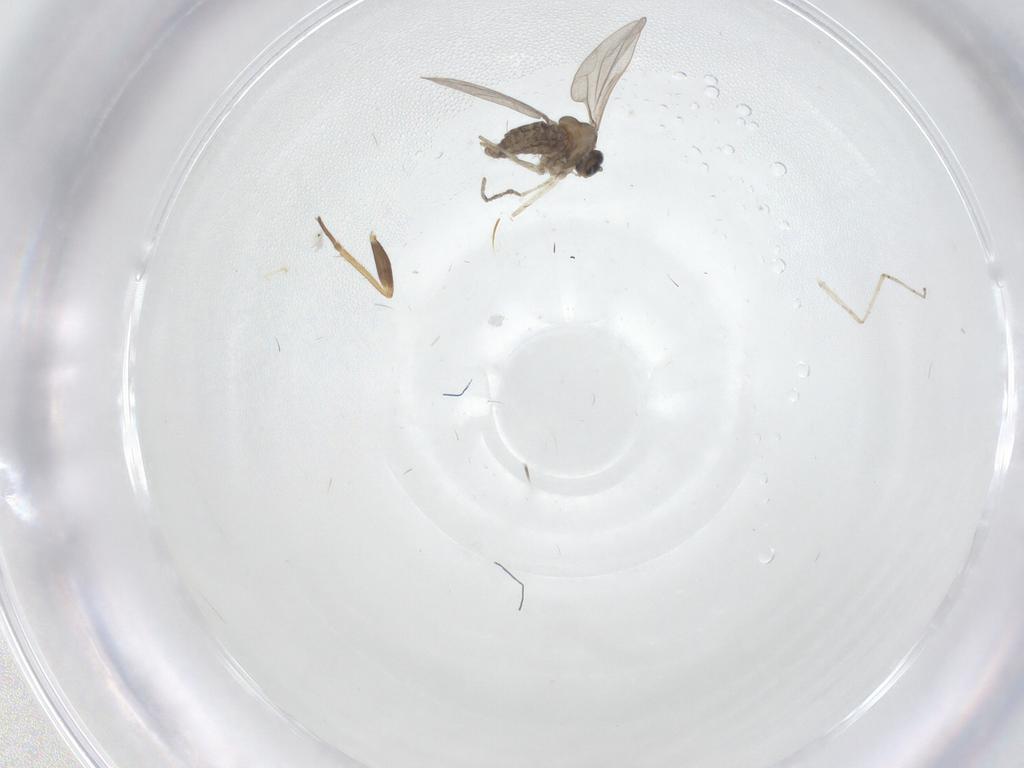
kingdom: Animalia
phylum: Arthropoda
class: Insecta
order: Diptera
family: Cecidomyiidae
